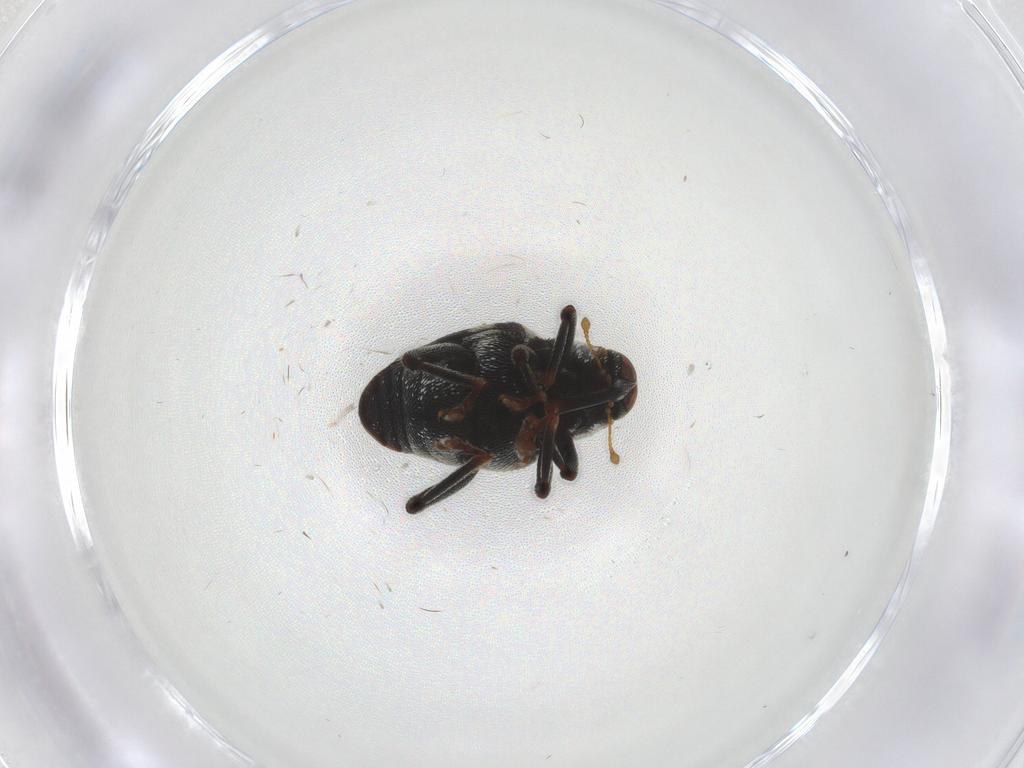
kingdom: Animalia
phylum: Arthropoda
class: Insecta
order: Coleoptera
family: Curculionidae
